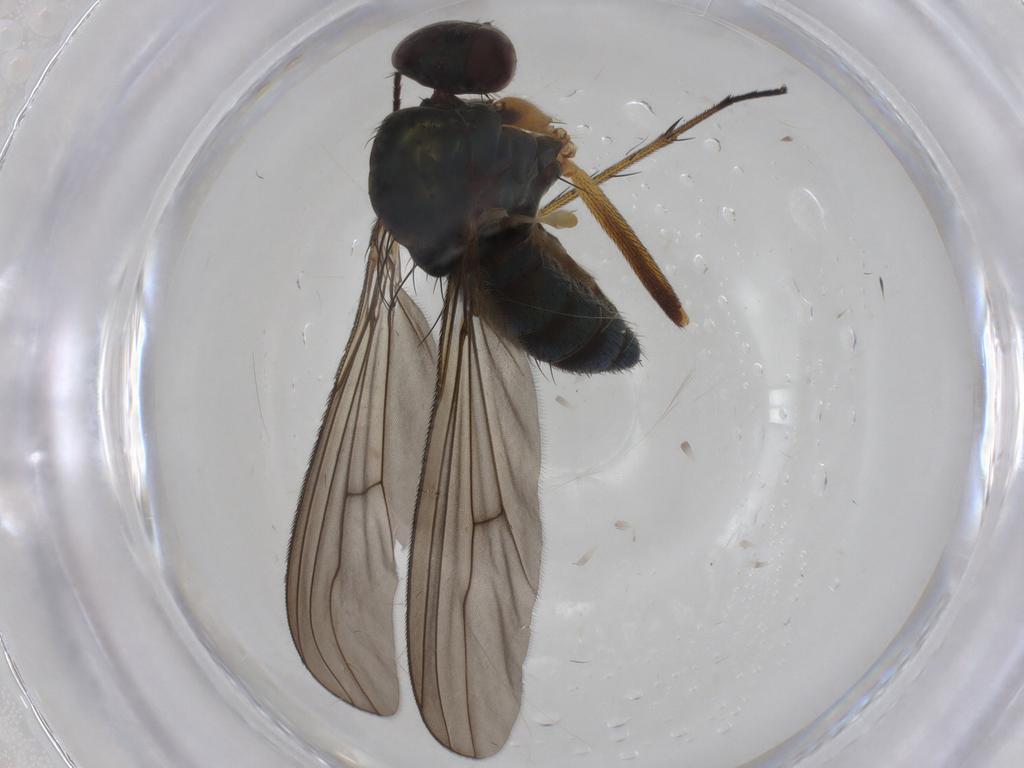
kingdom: Animalia
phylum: Arthropoda
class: Insecta
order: Diptera
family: Dolichopodidae
